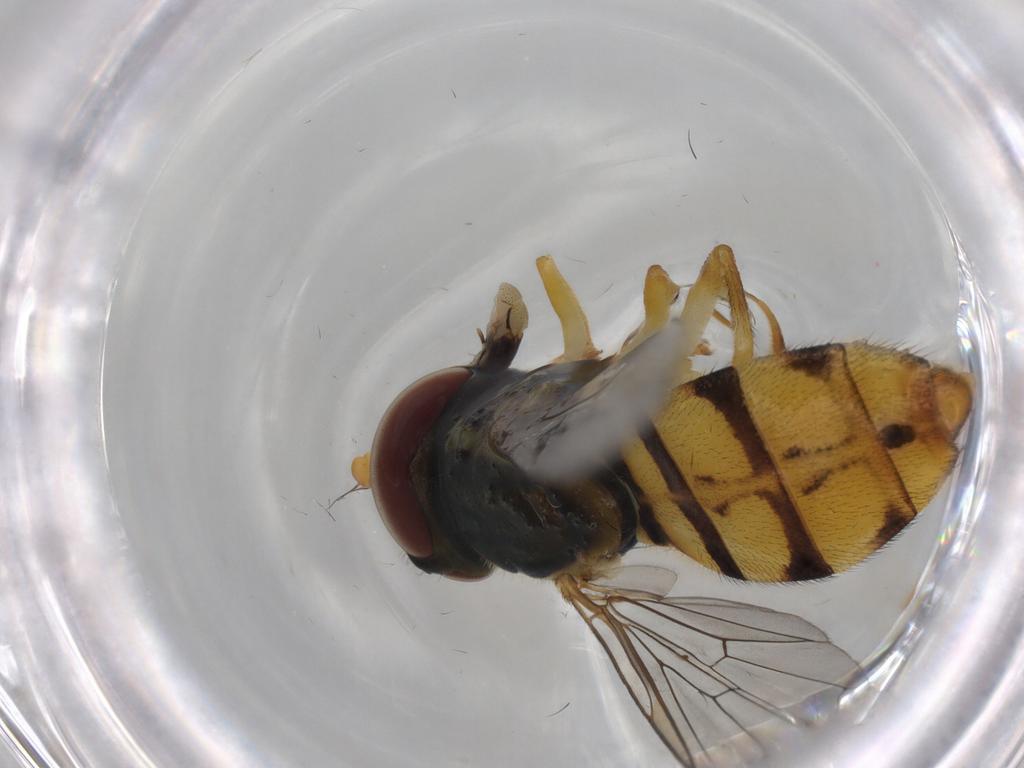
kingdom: Animalia
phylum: Arthropoda
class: Insecta
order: Diptera
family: Syrphidae
